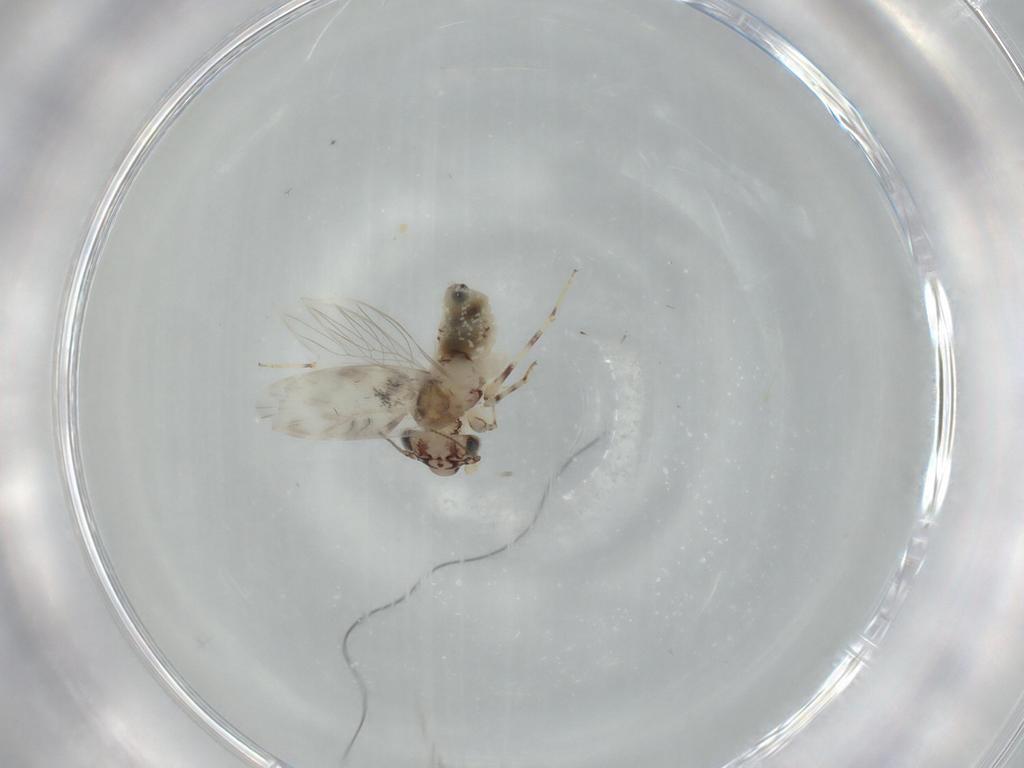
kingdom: Animalia
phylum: Arthropoda
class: Insecta
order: Psocodea
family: Lepidopsocidae
